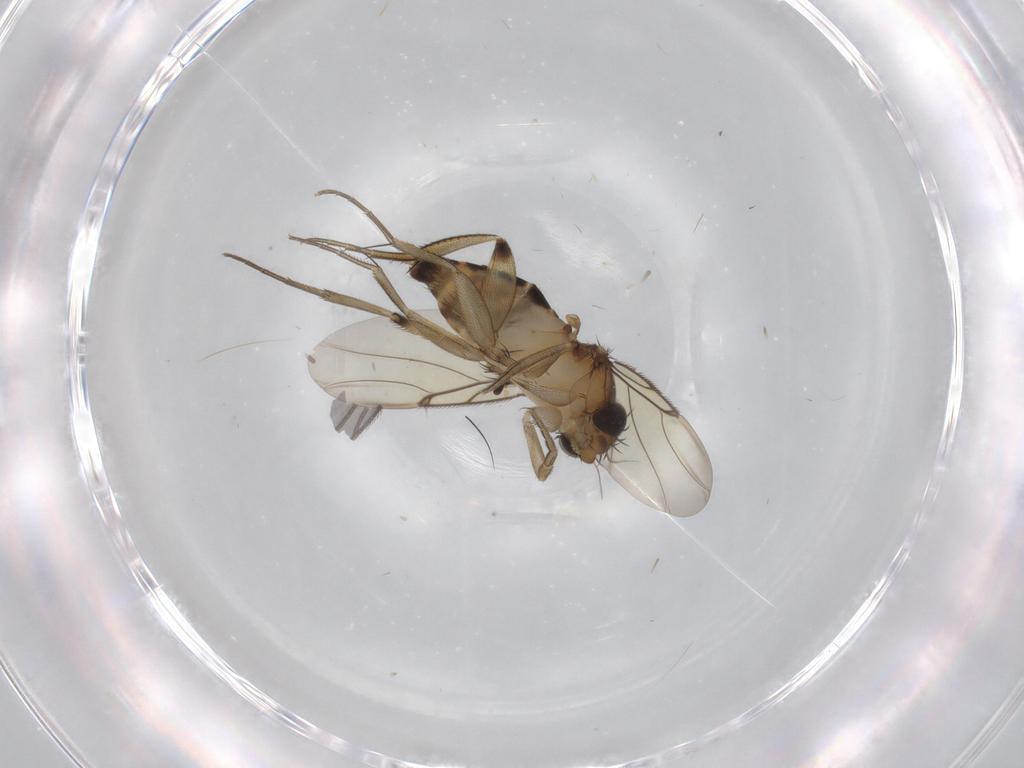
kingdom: Animalia
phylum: Arthropoda
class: Insecta
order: Diptera
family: Phoridae
